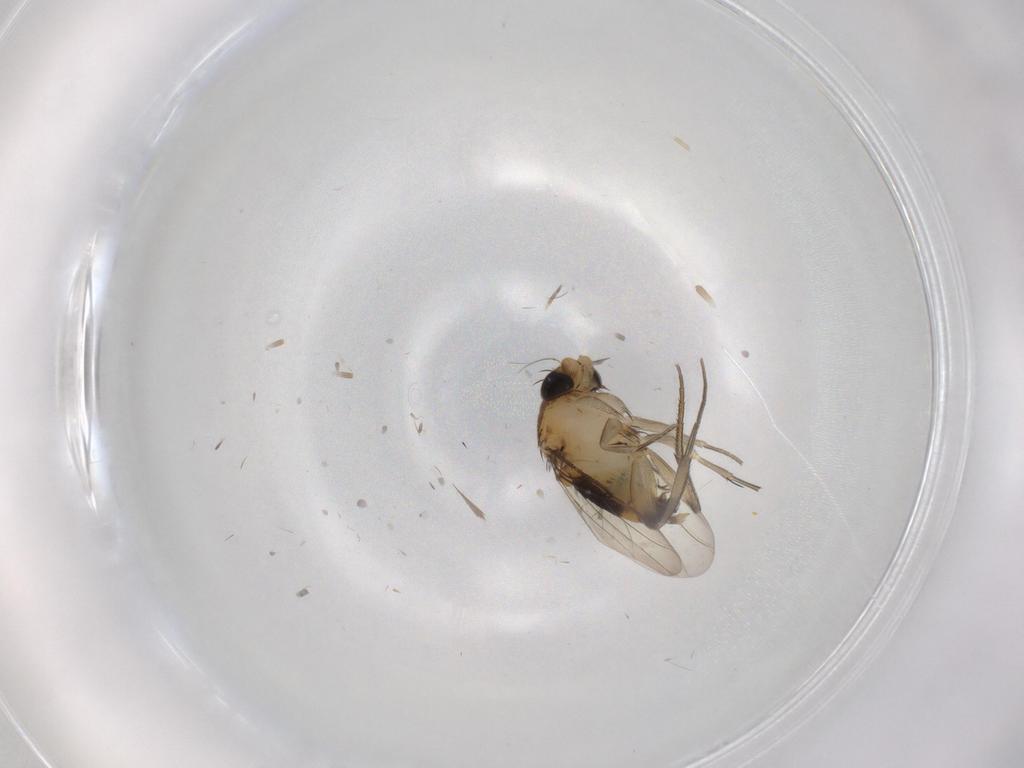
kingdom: Animalia
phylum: Arthropoda
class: Insecta
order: Diptera
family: Phoridae
